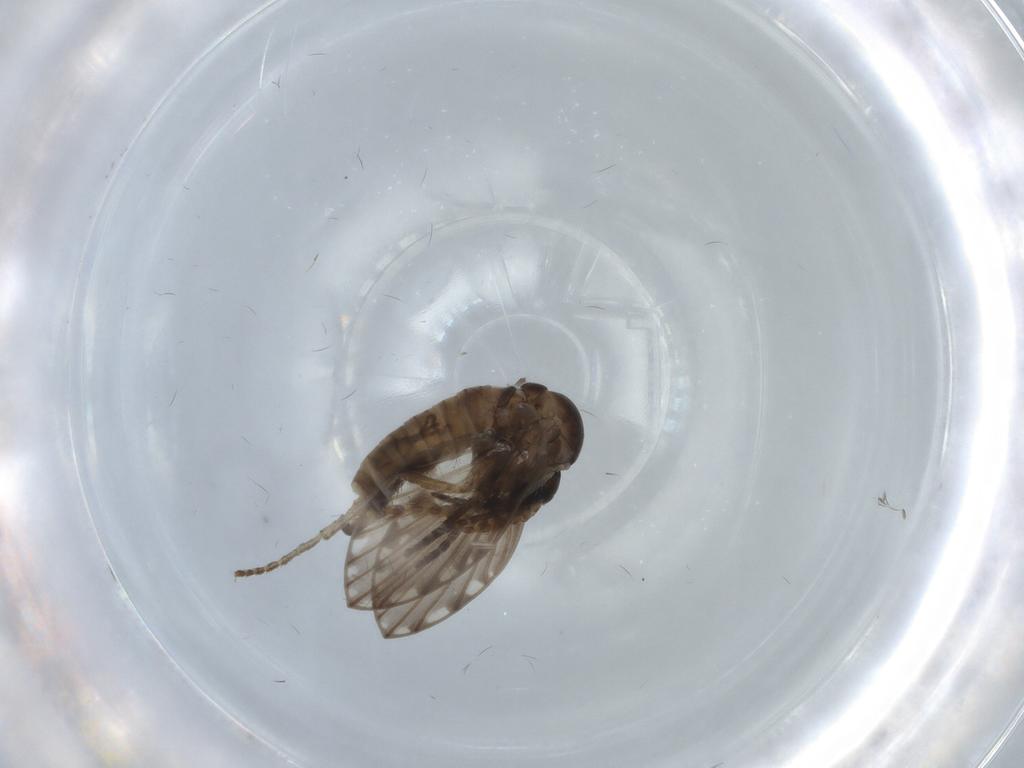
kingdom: Animalia
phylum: Arthropoda
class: Insecta
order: Diptera
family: Psychodidae
